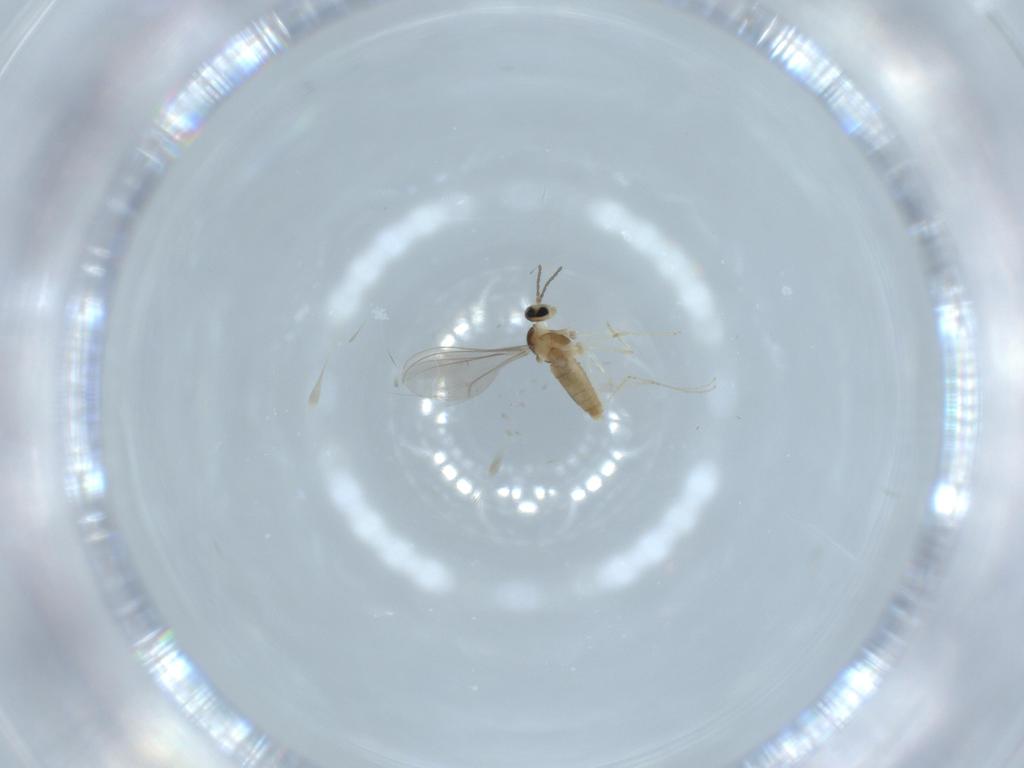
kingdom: Animalia
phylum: Arthropoda
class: Insecta
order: Diptera
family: Cecidomyiidae
